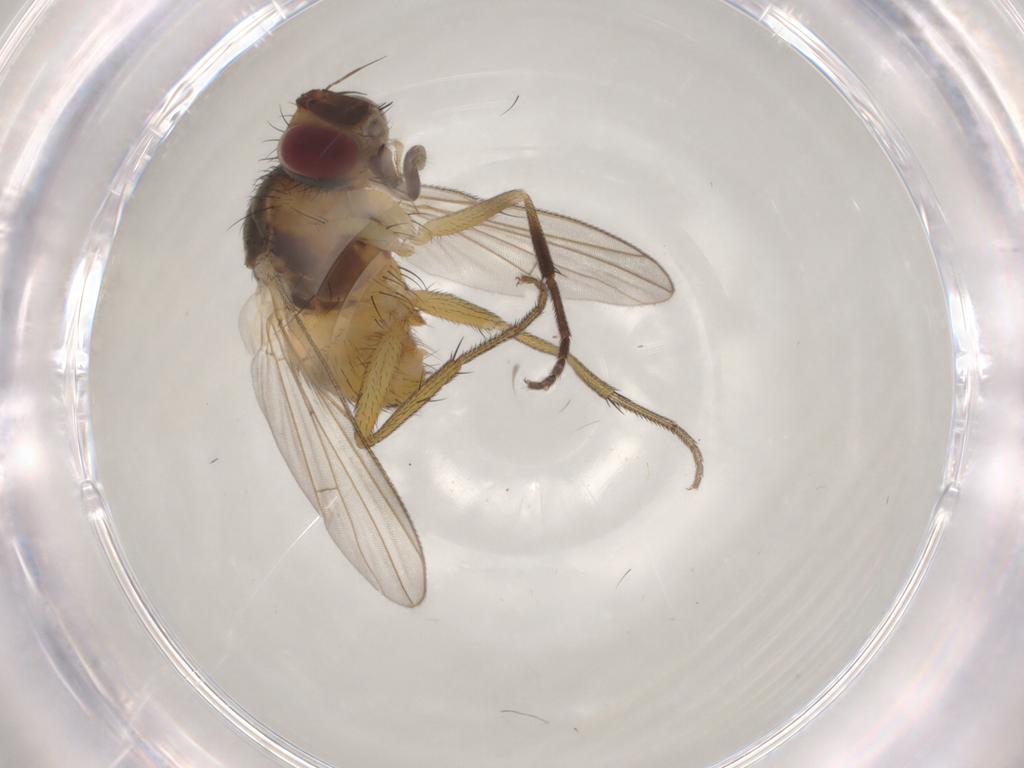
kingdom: Animalia
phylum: Arthropoda
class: Insecta
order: Diptera
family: Muscidae
